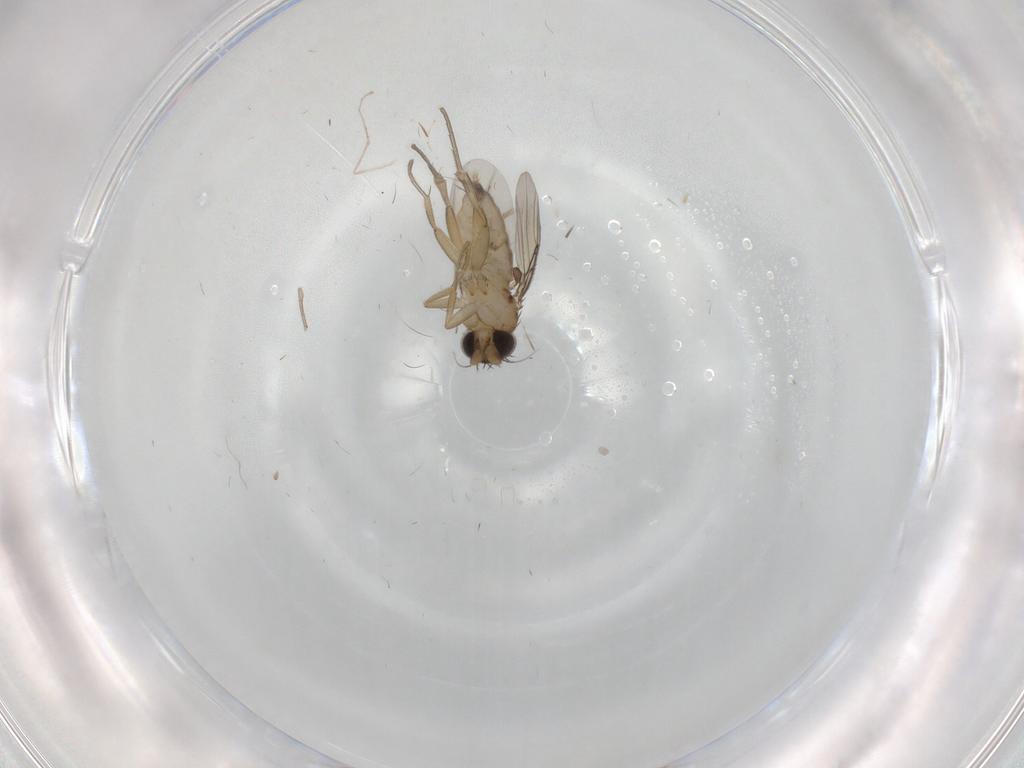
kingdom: Animalia
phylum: Arthropoda
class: Insecta
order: Diptera
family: Phoridae
